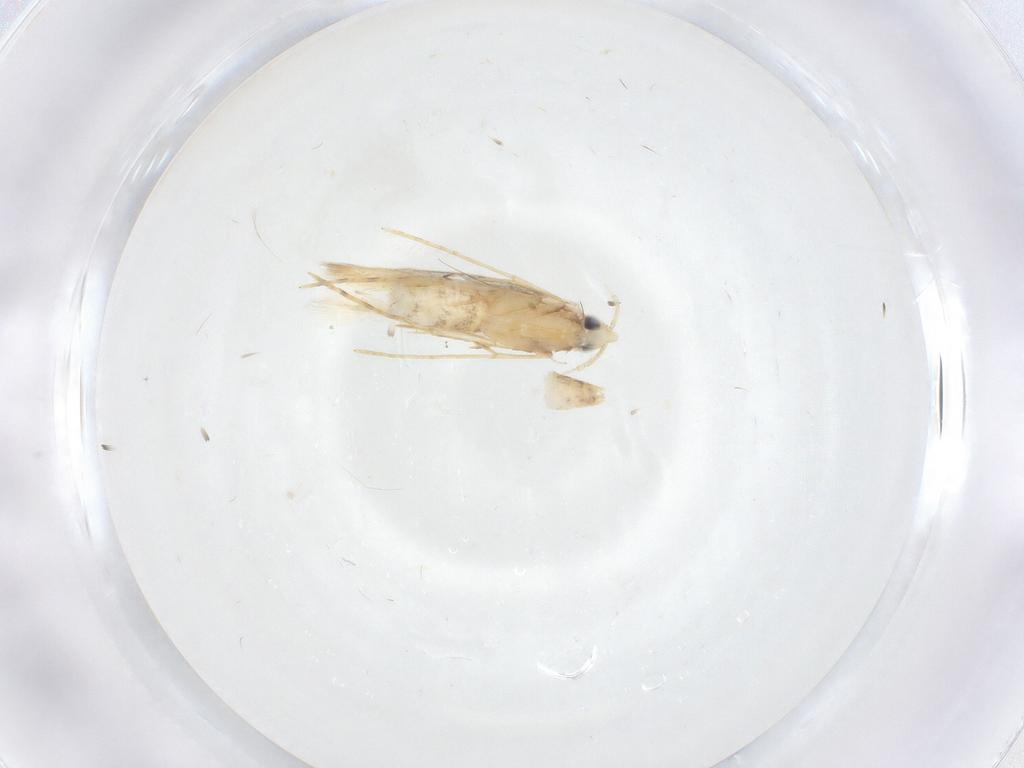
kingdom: Animalia
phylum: Arthropoda
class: Insecta
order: Lepidoptera
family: Tineidae
